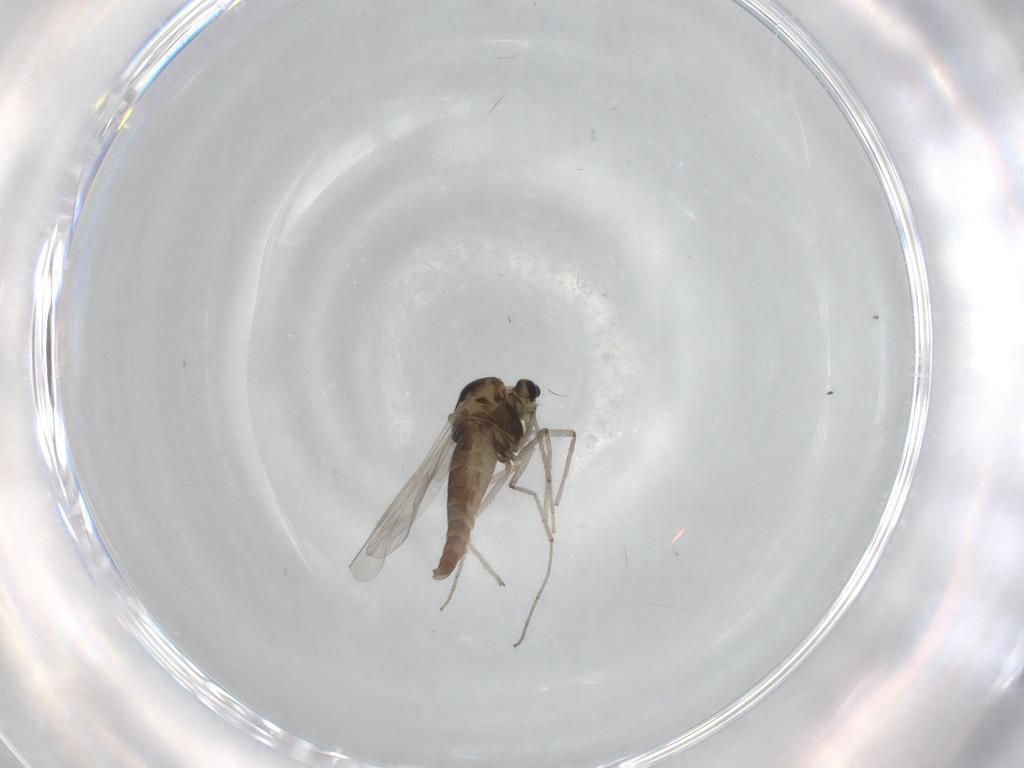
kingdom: Animalia
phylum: Arthropoda
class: Insecta
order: Diptera
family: Chironomidae
